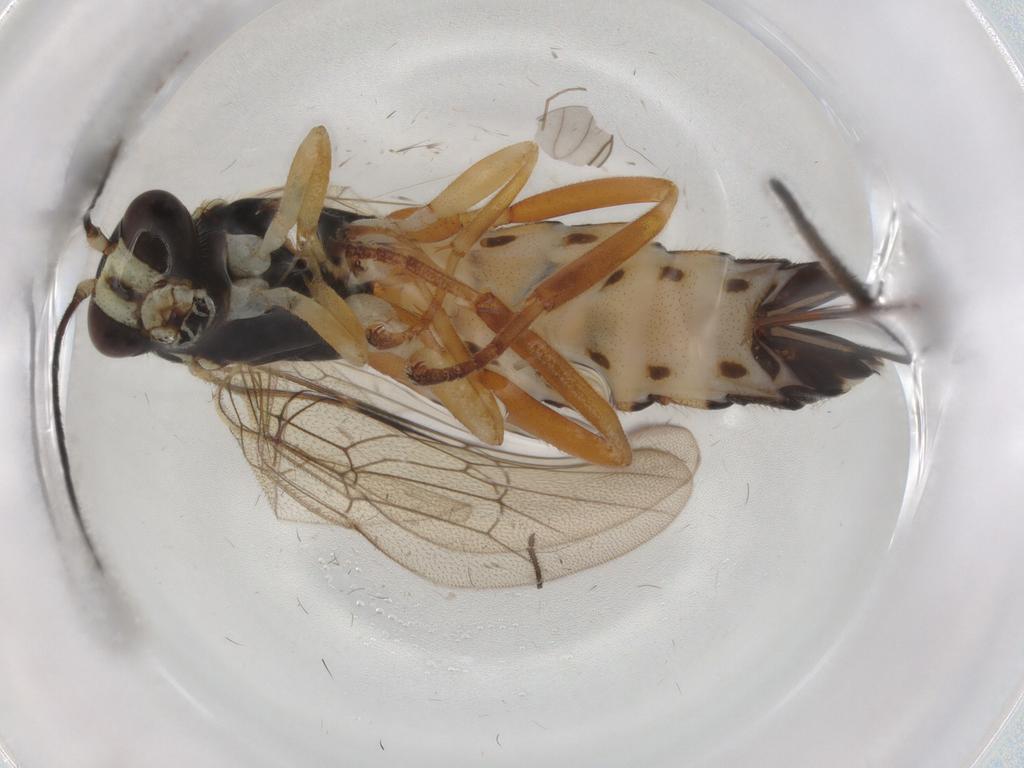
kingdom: Animalia
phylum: Arthropoda
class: Insecta
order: Hymenoptera
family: Ichneumonidae
